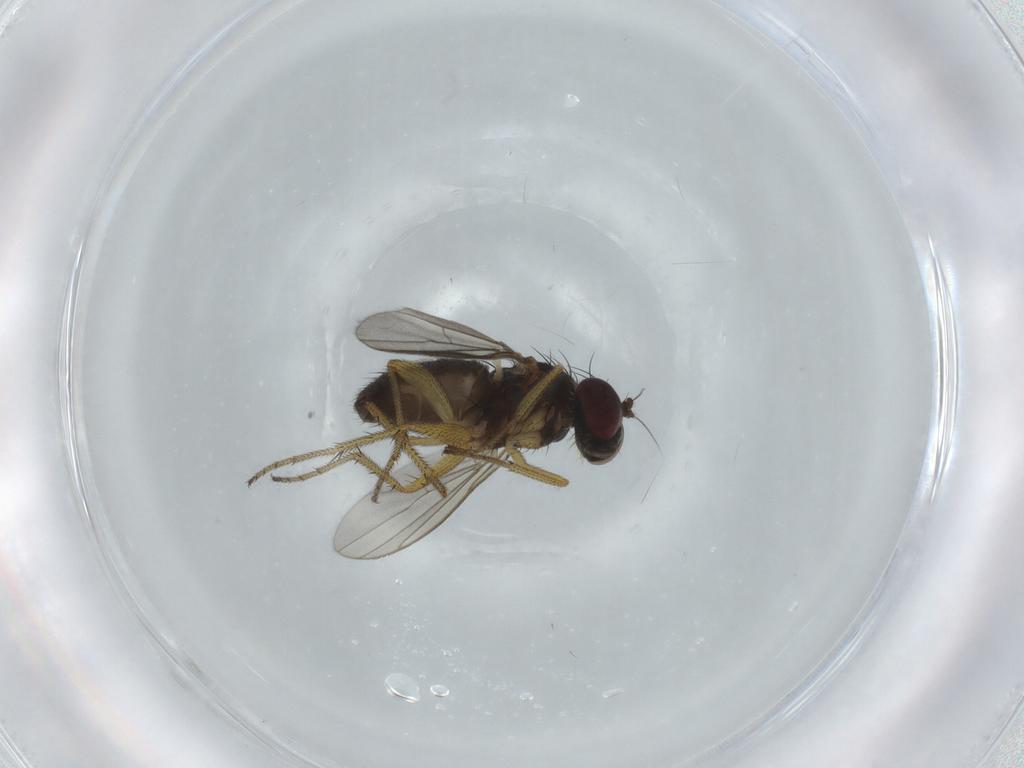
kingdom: Animalia
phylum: Arthropoda
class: Insecta
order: Diptera
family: Dolichopodidae
